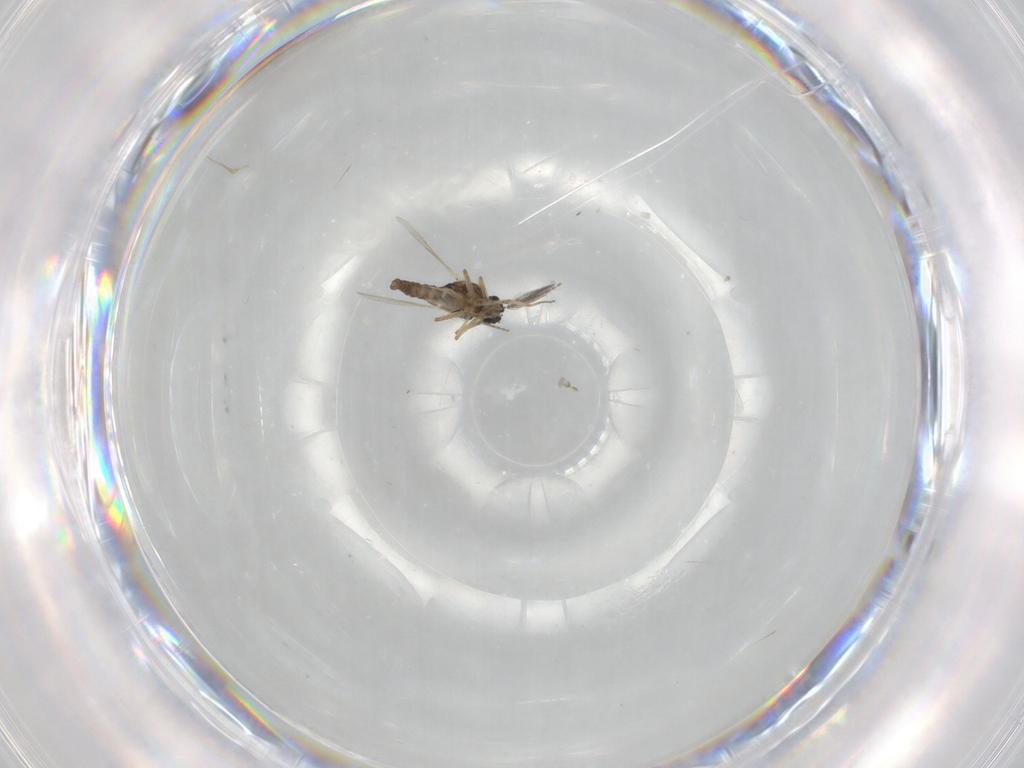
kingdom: Animalia
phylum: Arthropoda
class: Insecta
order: Diptera
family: Ceratopogonidae
